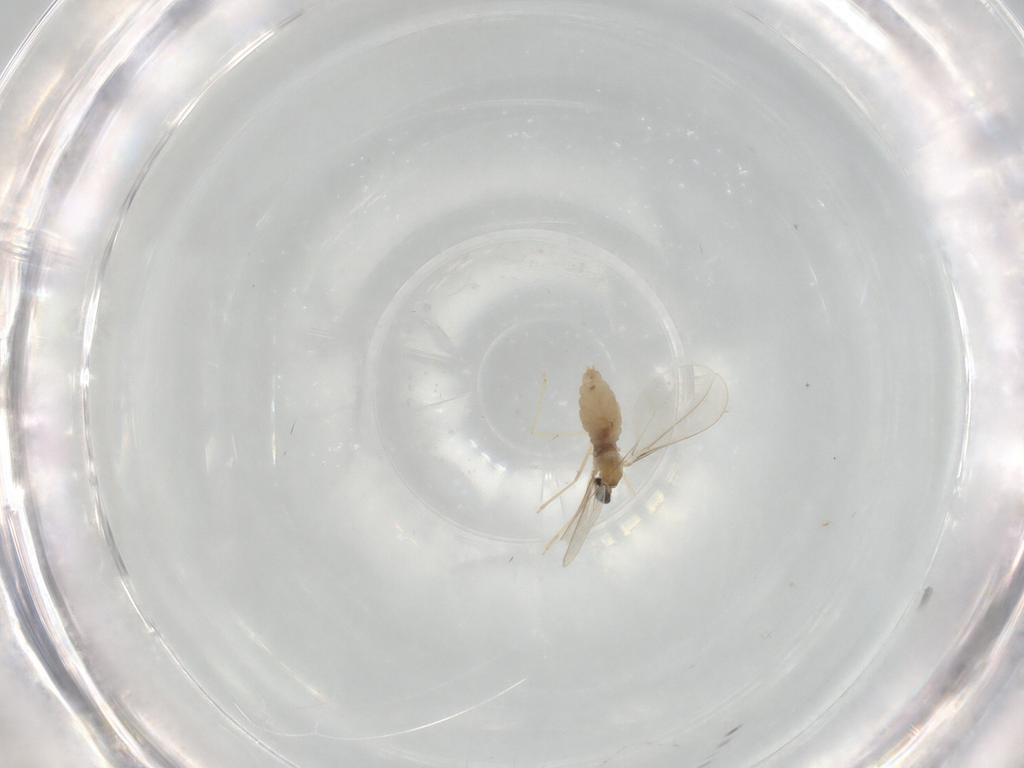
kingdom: Animalia
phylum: Arthropoda
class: Insecta
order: Diptera
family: Cecidomyiidae
